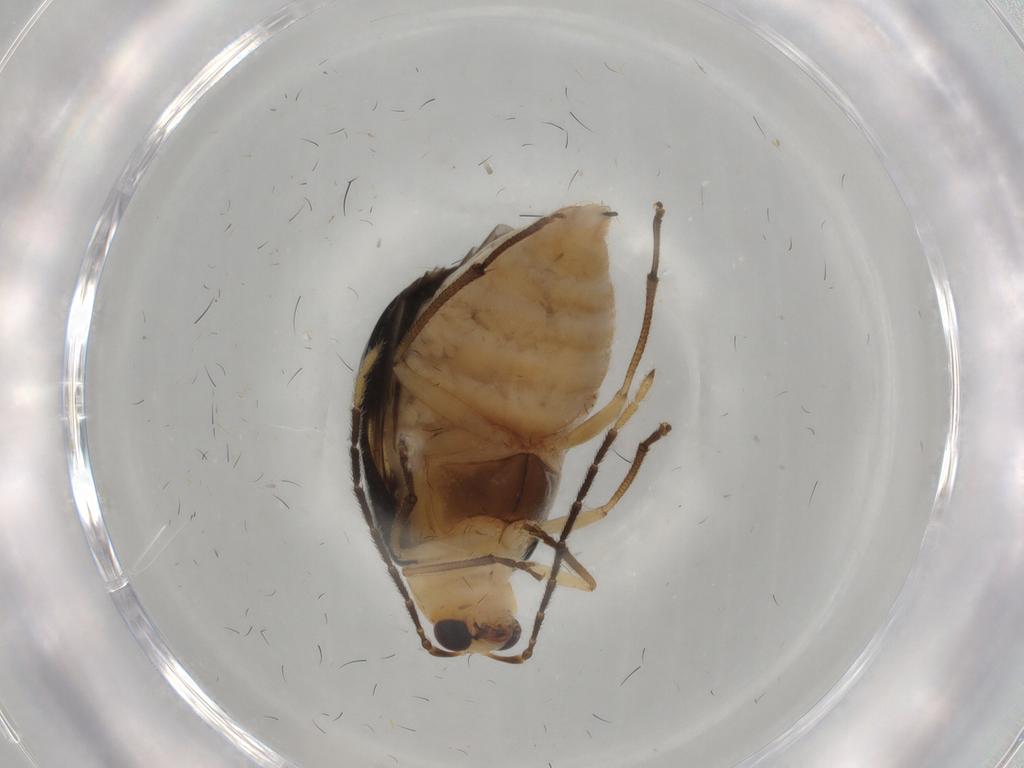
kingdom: Animalia
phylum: Arthropoda
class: Insecta
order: Coleoptera
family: Chrysomelidae
